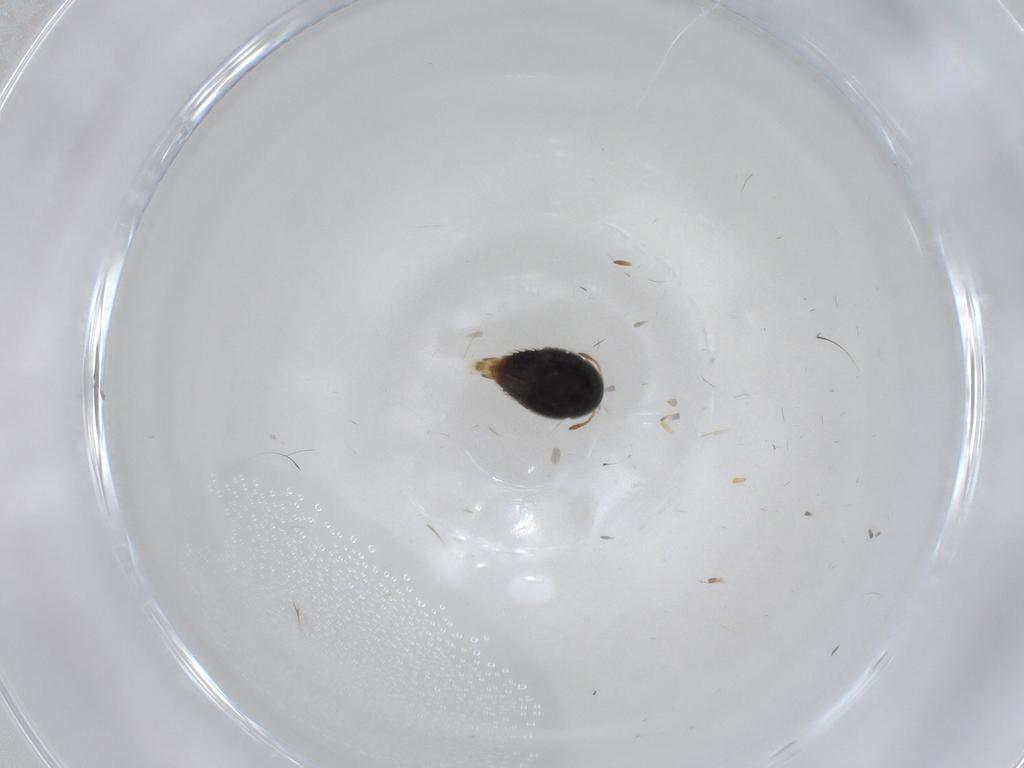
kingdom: Animalia
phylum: Arthropoda
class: Insecta
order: Coleoptera
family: Staphylinidae
